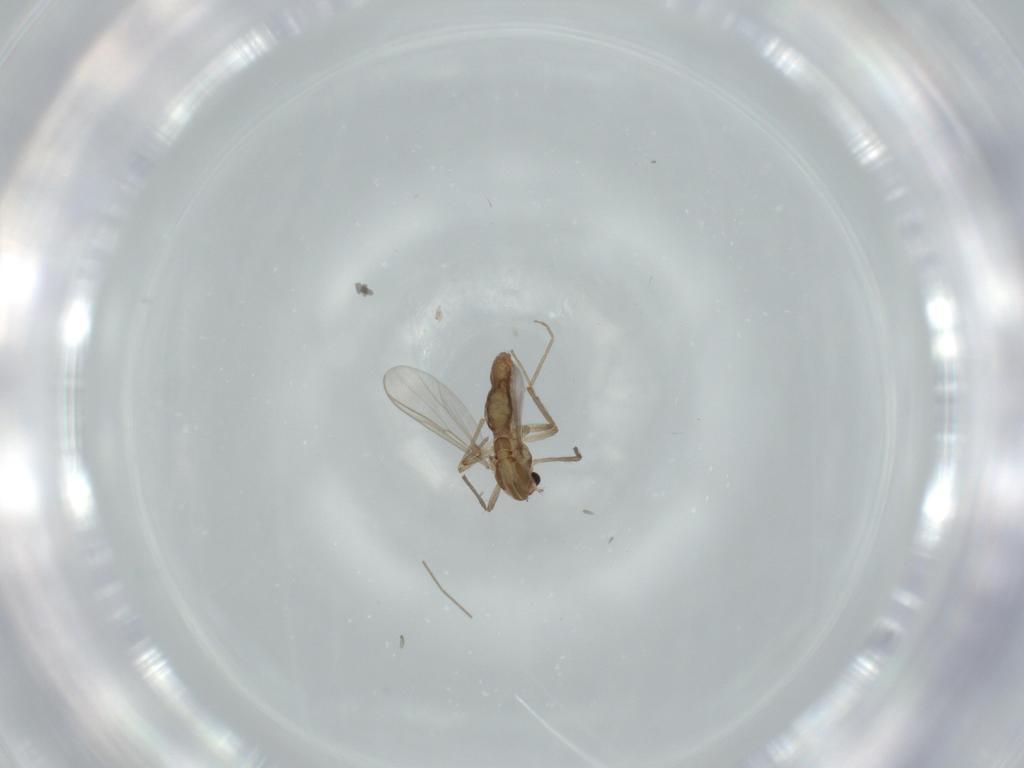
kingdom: Animalia
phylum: Arthropoda
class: Insecta
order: Diptera
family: Chironomidae
